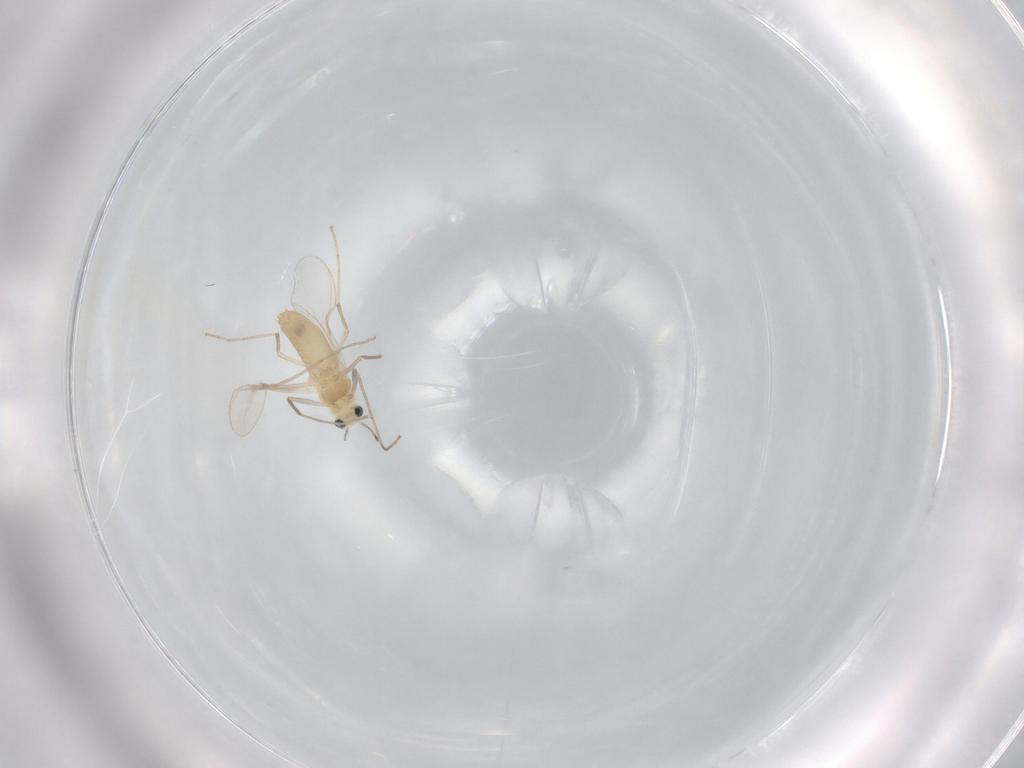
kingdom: Animalia
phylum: Arthropoda
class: Insecta
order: Diptera
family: Chironomidae
